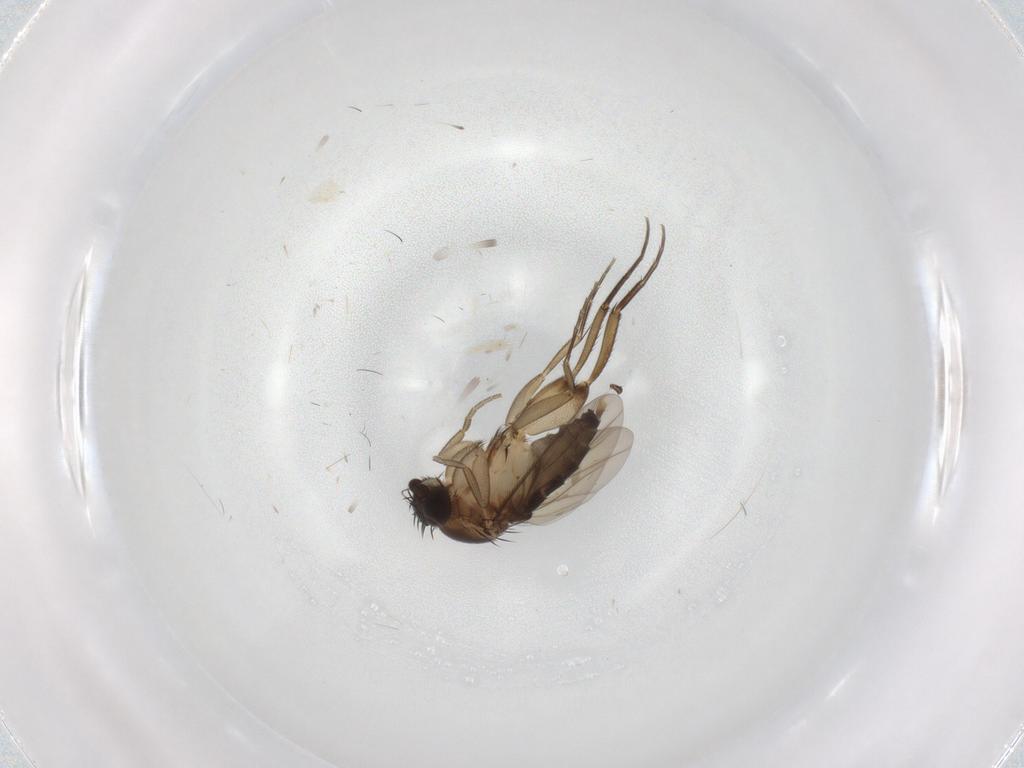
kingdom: Animalia
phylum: Arthropoda
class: Insecta
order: Diptera
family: Phoridae
